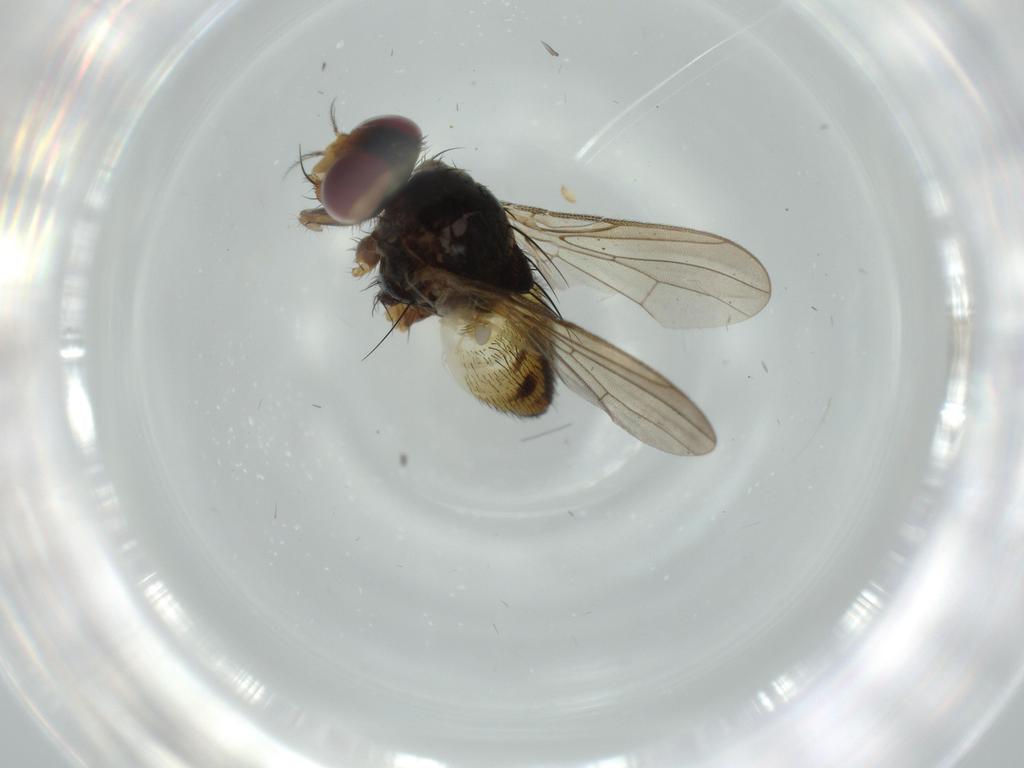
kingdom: Animalia
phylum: Arthropoda
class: Insecta
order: Diptera
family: Anthomyiidae
